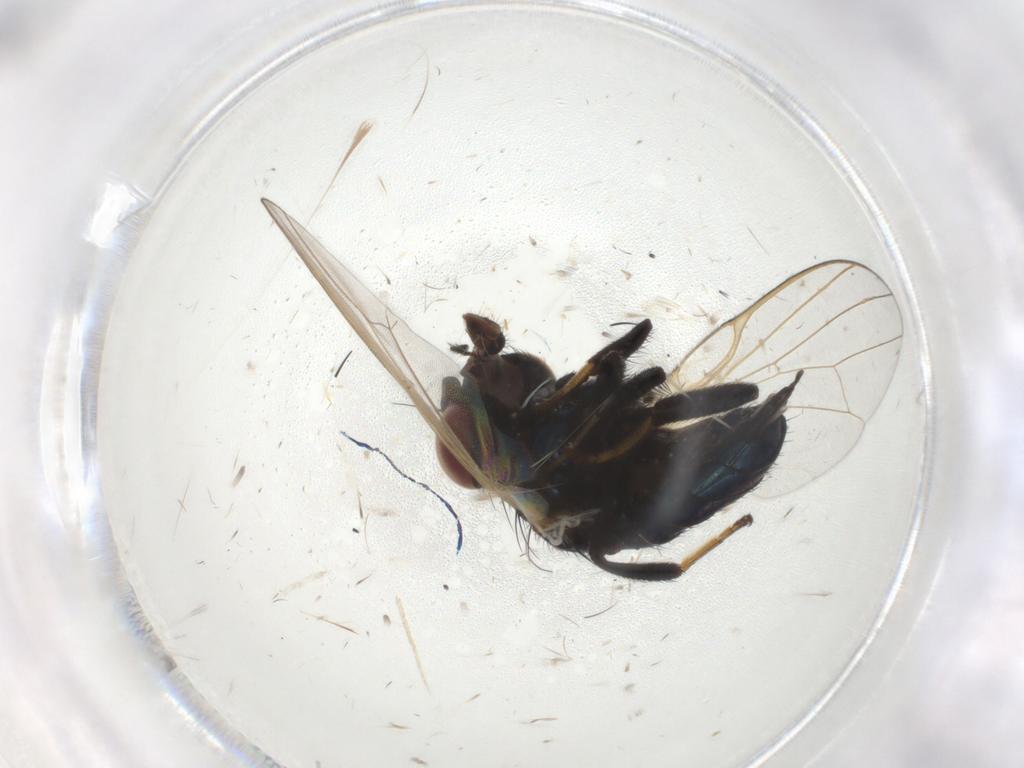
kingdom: Animalia
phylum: Arthropoda
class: Insecta
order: Diptera
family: Lonchaeidae
